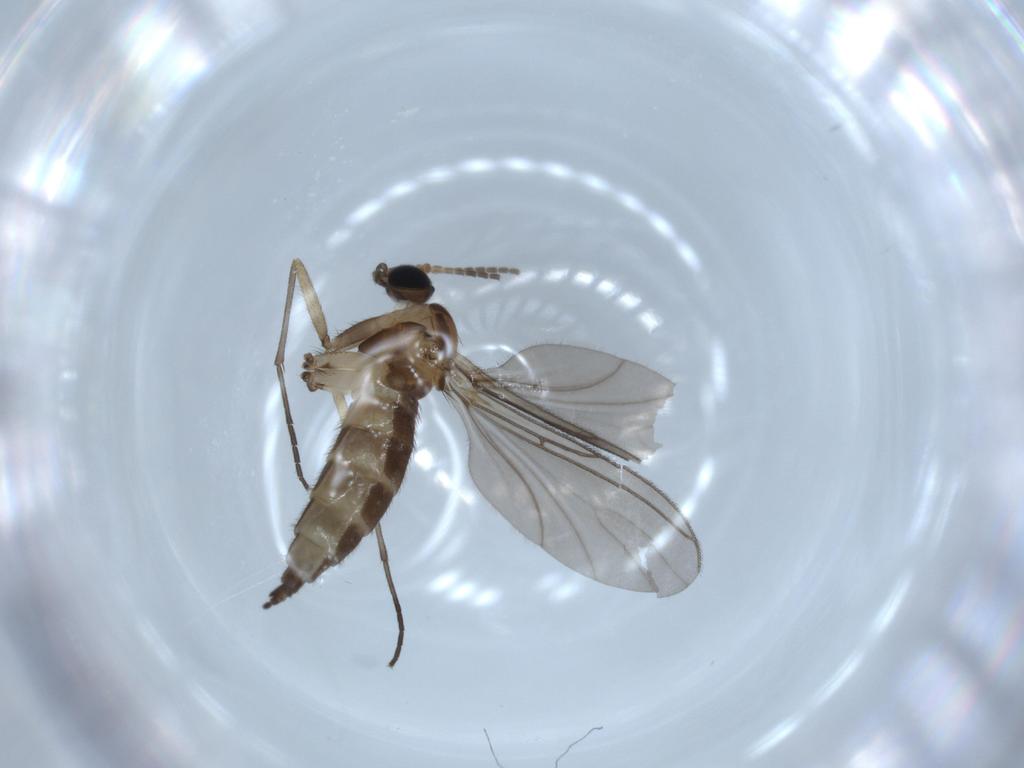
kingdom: Animalia
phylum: Arthropoda
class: Insecta
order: Diptera
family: Sciaridae
